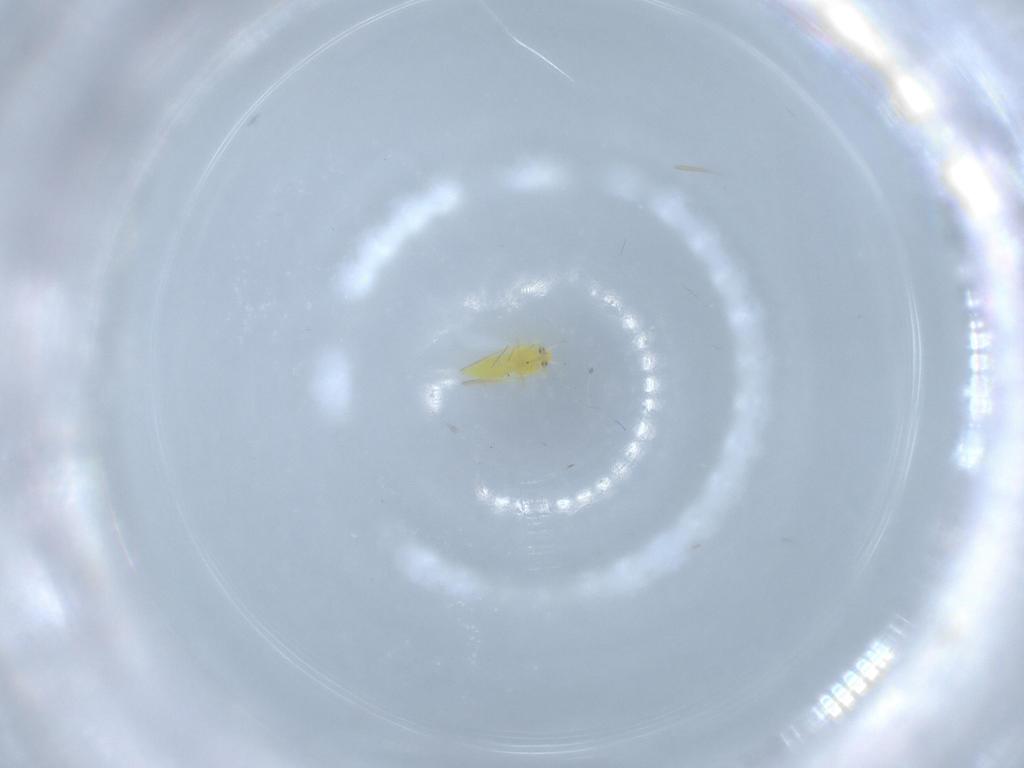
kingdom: Animalia
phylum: Arthropoda
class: Insecta
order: Hemiptera
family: Aleyrodidae
